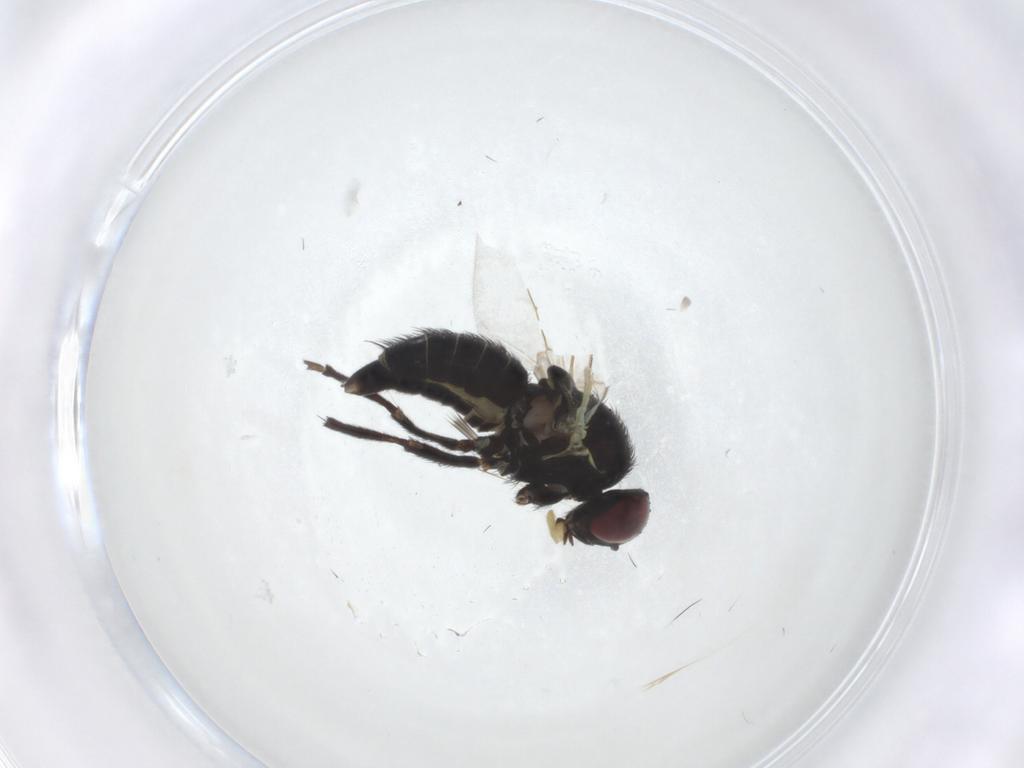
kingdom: Animalia
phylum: Arthropoda
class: Insecta
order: Diptera
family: Agromyzidae
